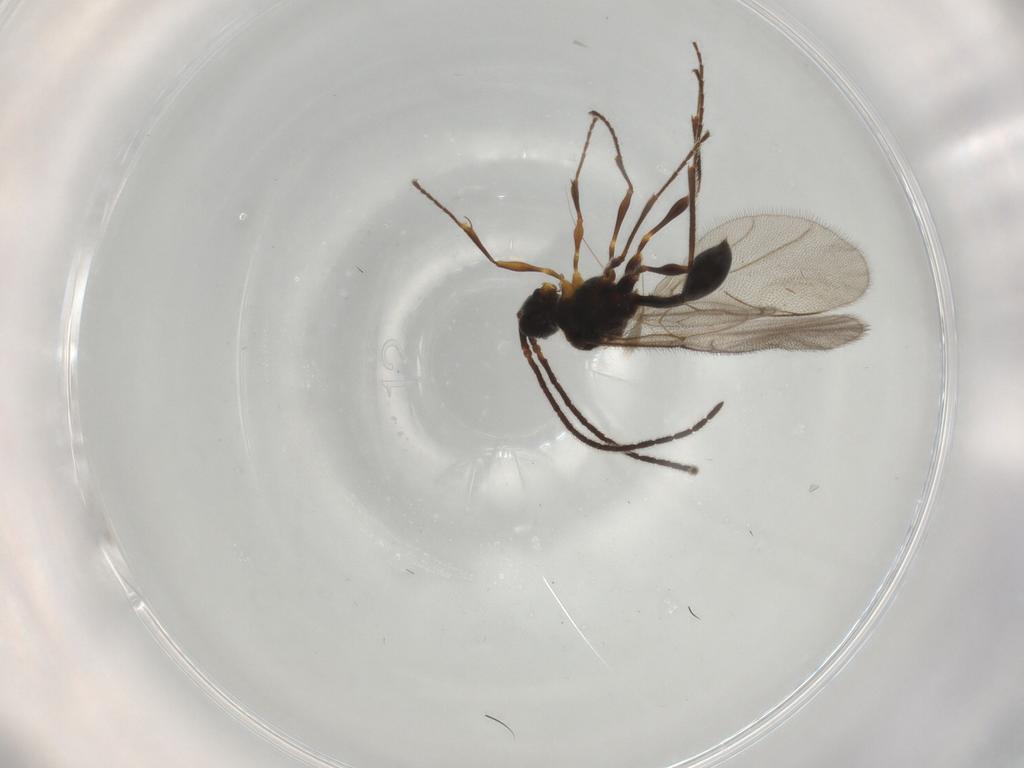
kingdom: Animalia
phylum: Arthropoda
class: Insecta
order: Hymenoptera
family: Diapriidae
